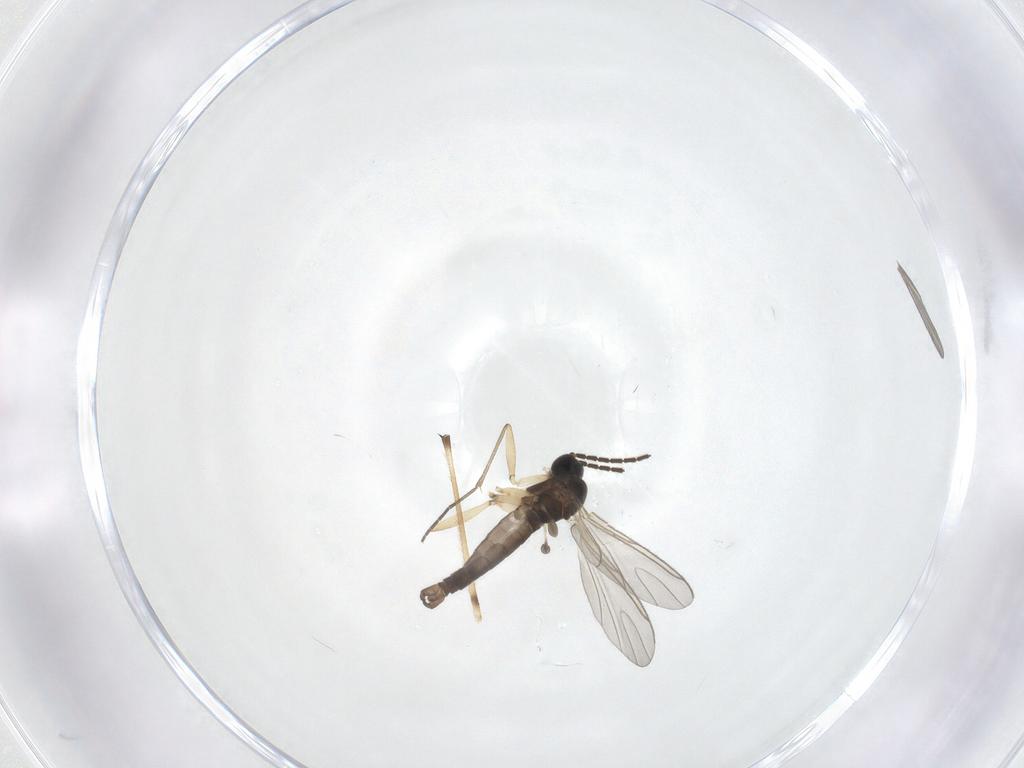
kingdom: Animalia
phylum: Arthropoda
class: Insecta
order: Diptera
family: Chironomidae
